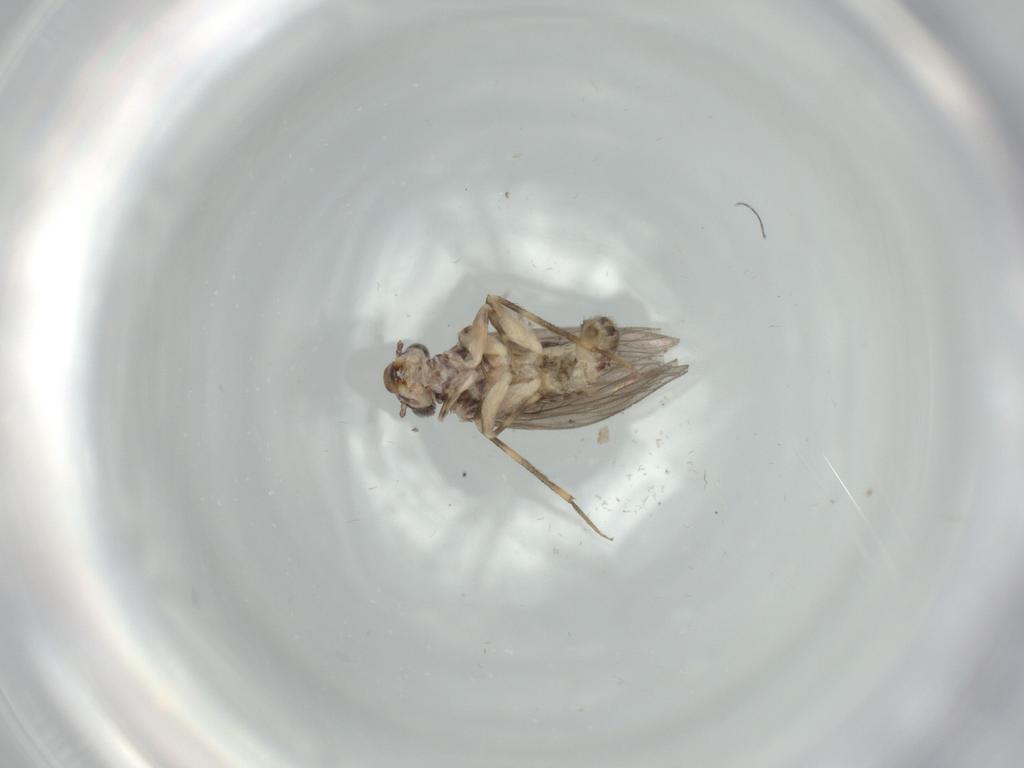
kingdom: Animalia
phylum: Arthropoda
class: Insecta
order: Psocodea
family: Lepidopsocidae
